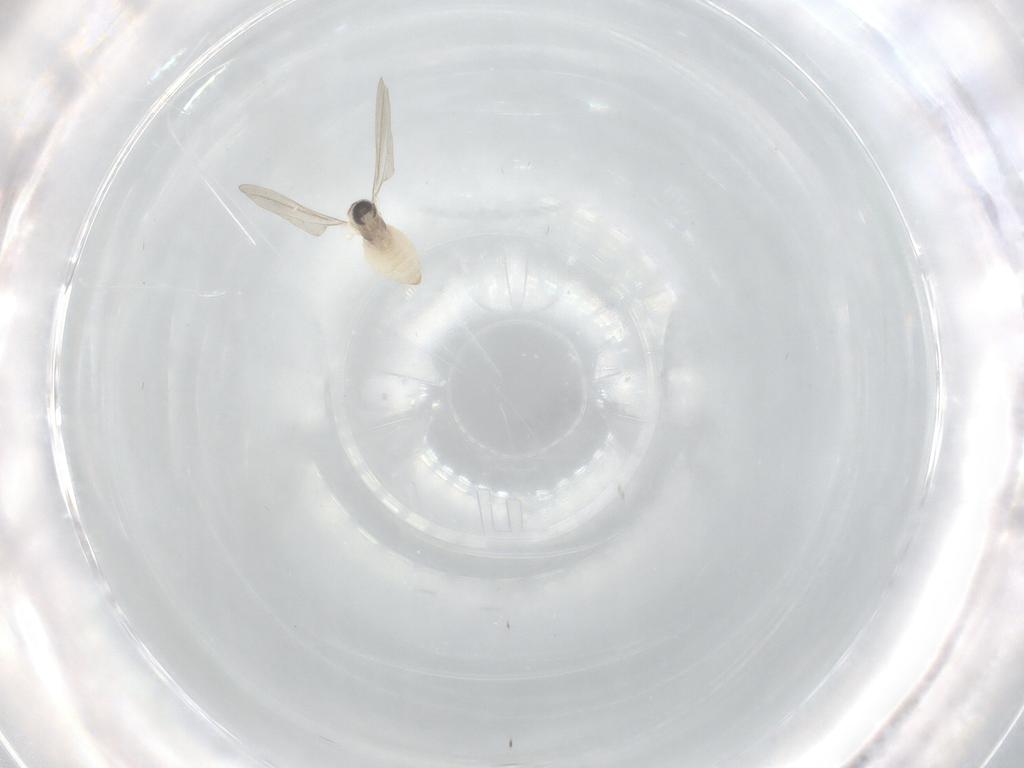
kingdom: Animalia
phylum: Arthropoda
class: Insecta
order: Diptera
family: Cecidomyiidae
